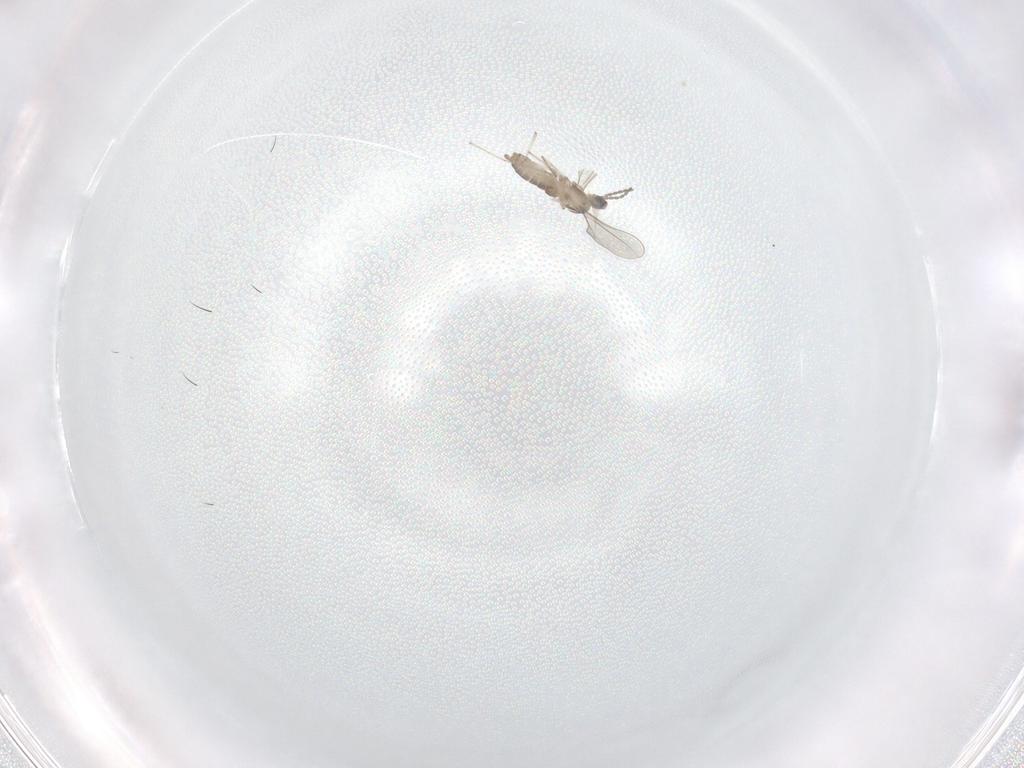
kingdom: Animalia
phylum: Arthropoda
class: Insecta
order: Diptera
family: Cecidomyiidae
